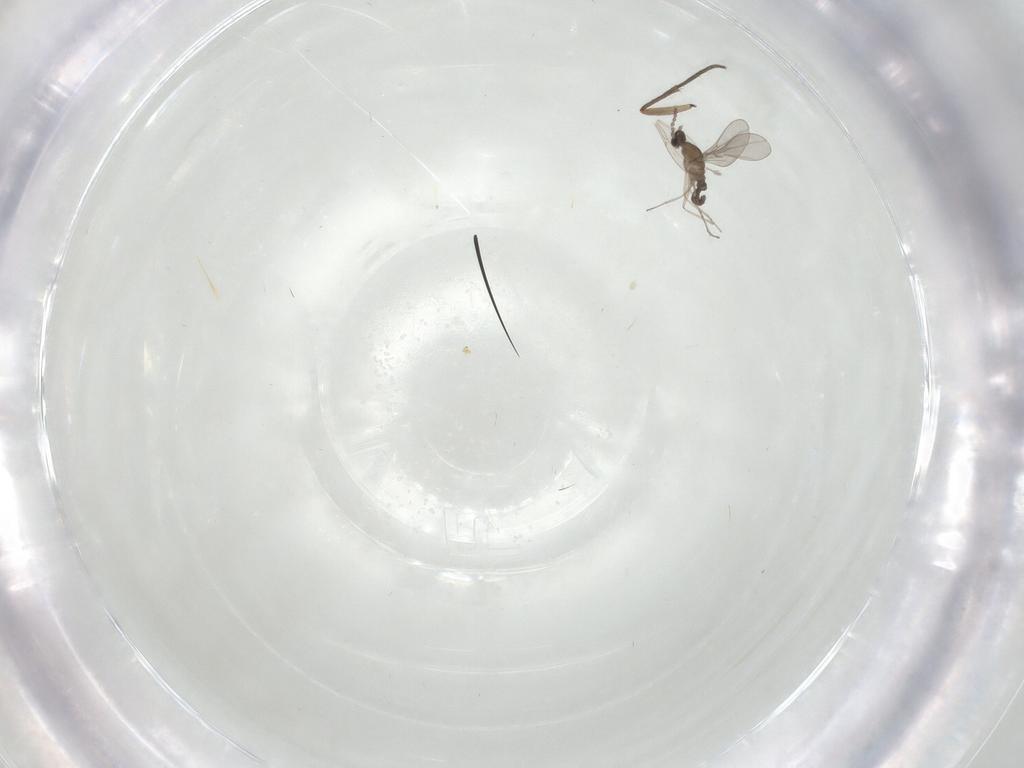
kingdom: Animalia
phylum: Arthropoda
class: Insecta
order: Diptera
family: Cecidomyiidae
